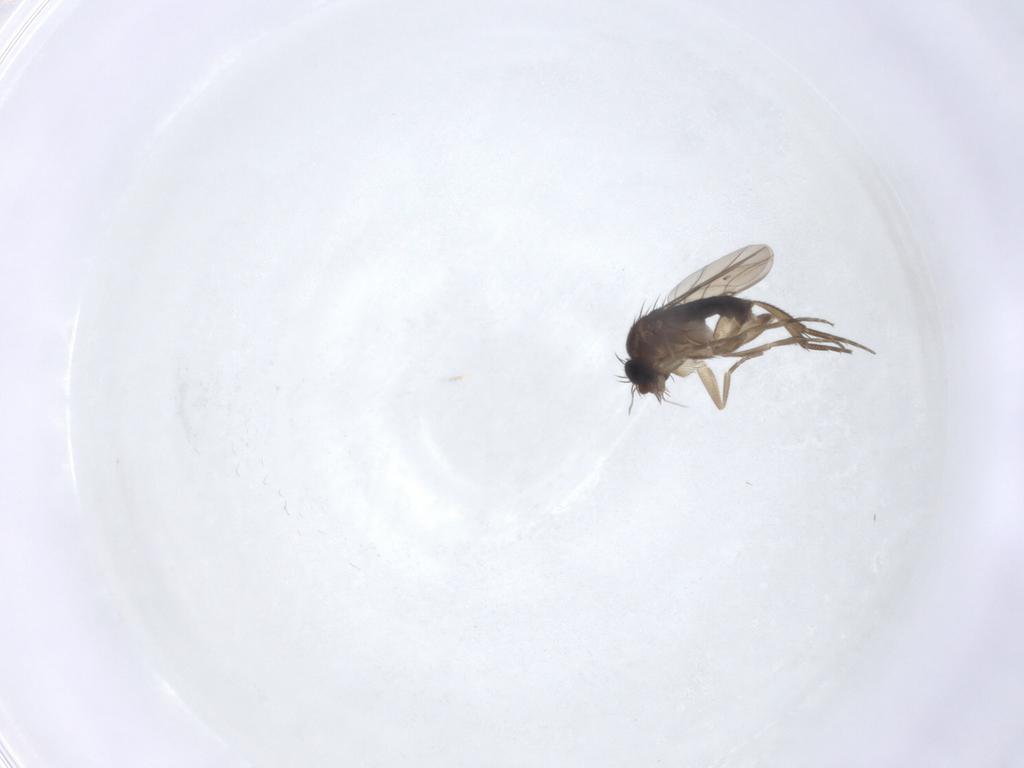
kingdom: Animalia
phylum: Arthropoda
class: Insecta
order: Diptera
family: Phoridae
